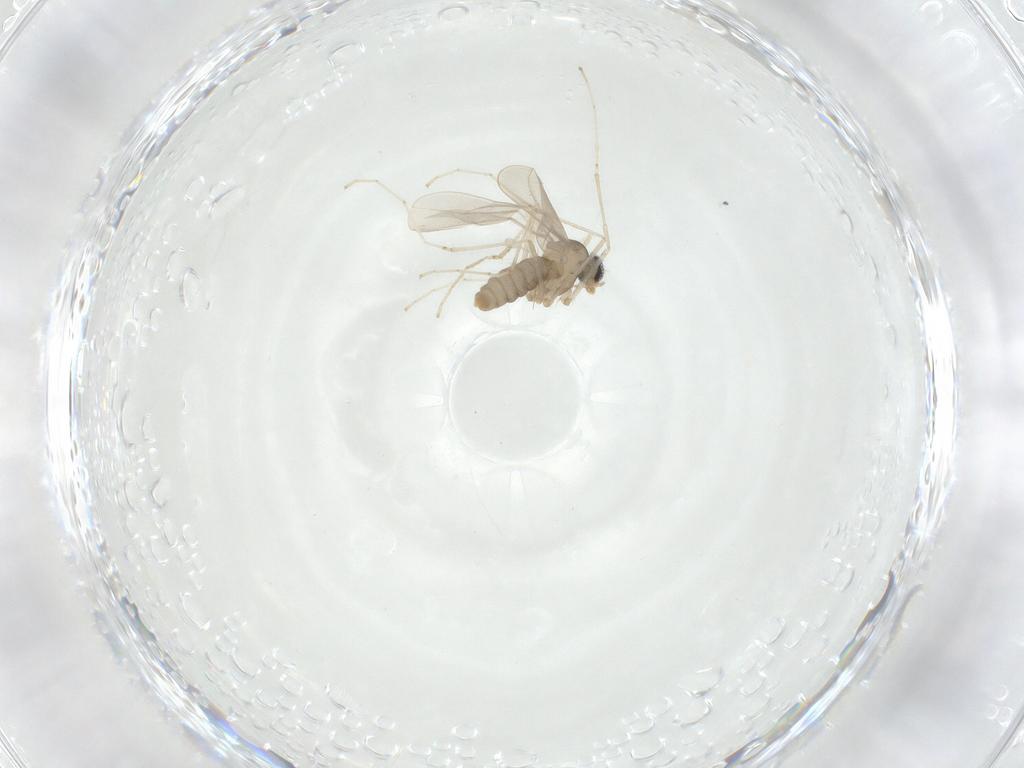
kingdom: Animalia
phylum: Arthropoda
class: Insecta
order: Diptera
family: Cecidomyiidae
